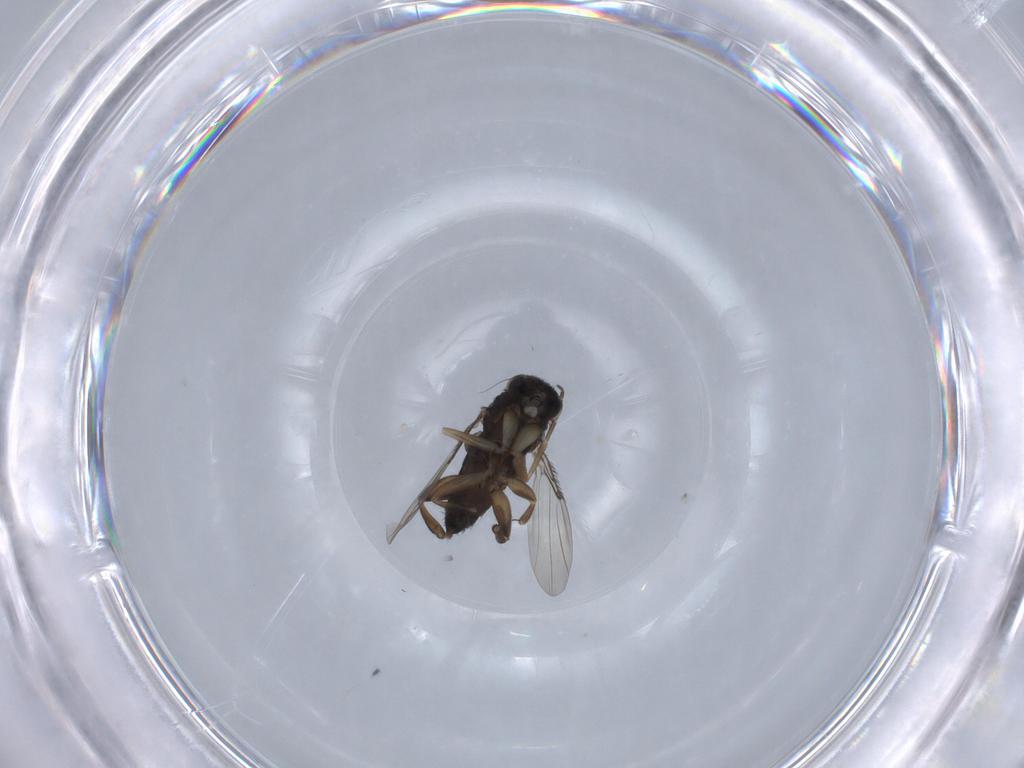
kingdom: Animalia
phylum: Arthropoda
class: Insecta
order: Diptera
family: Phoridae
